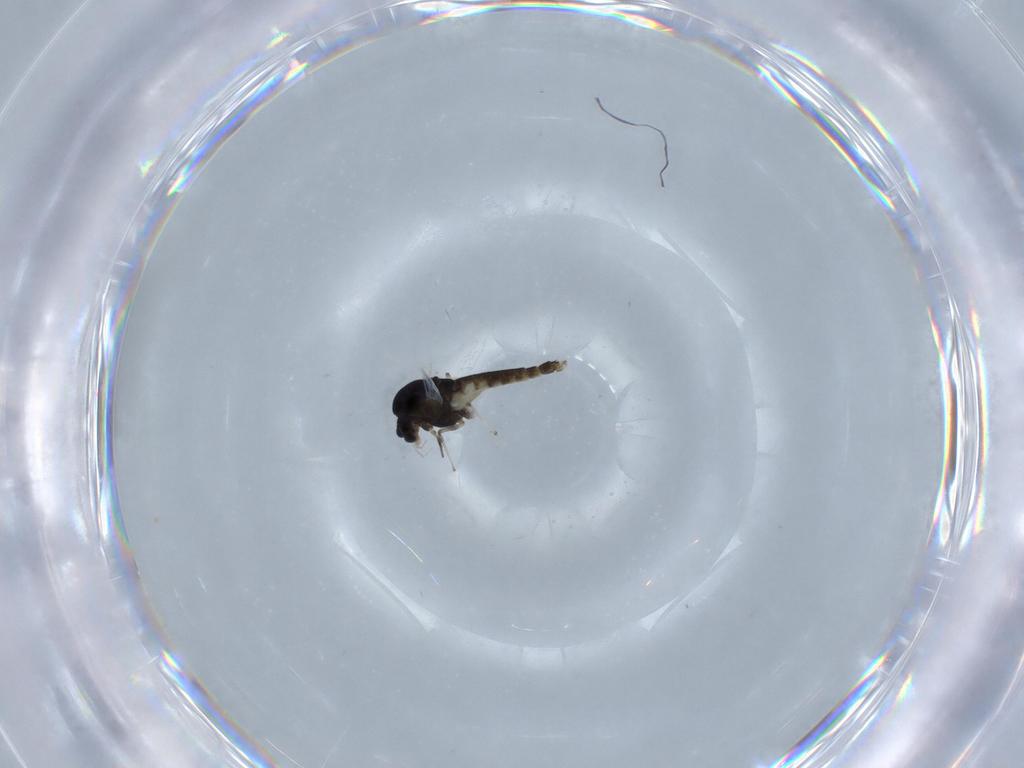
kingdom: Animalia
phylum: Arthropoda
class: Insecta
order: Diptera
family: Chironomidae
